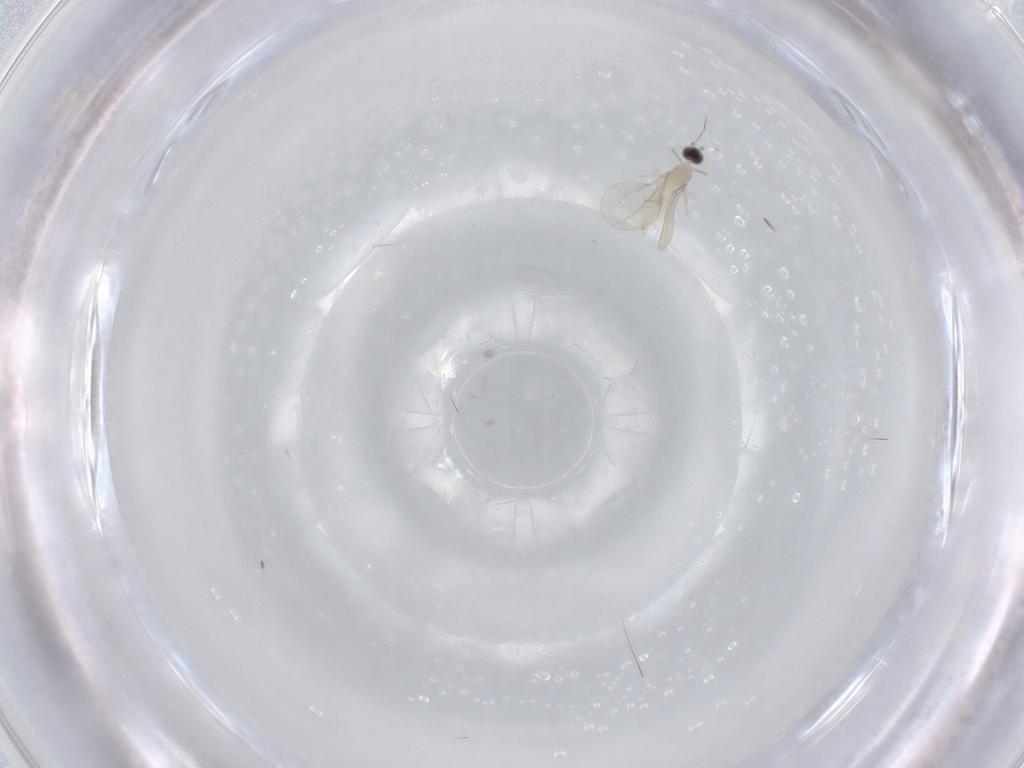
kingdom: Animalia
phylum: Arthropoda
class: Insecta
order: Diptera
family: Cecidomyiidae
